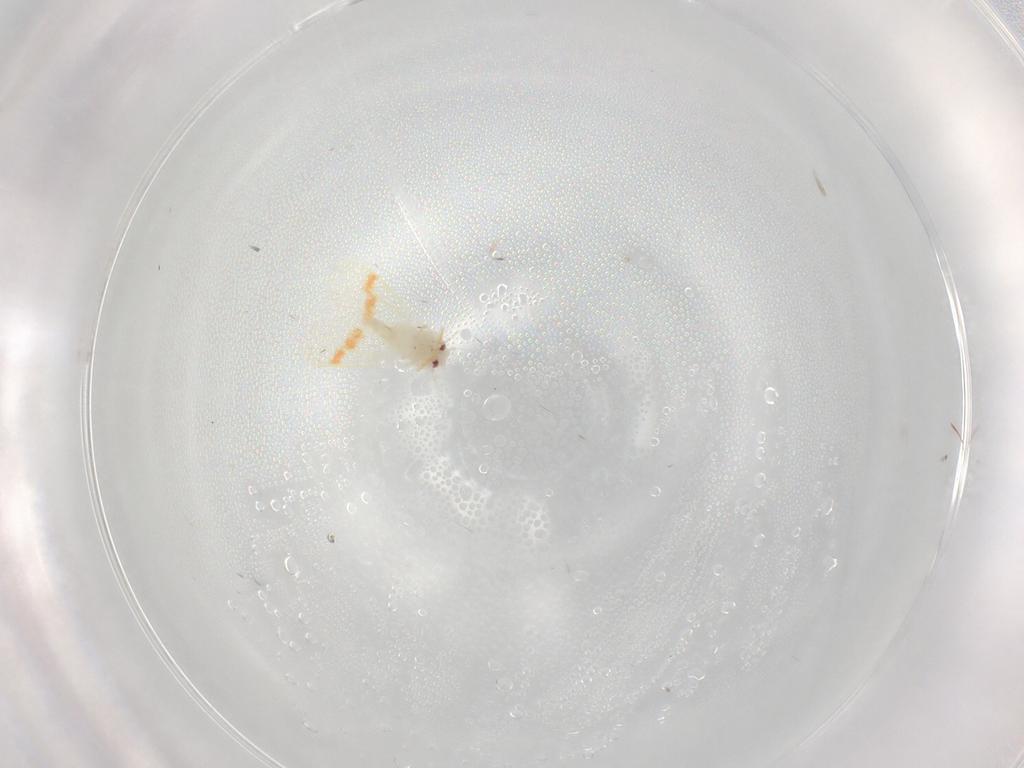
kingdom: Animalia
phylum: Arthropoda
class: Insecta
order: Hemiptera
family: Aleyrodidae
